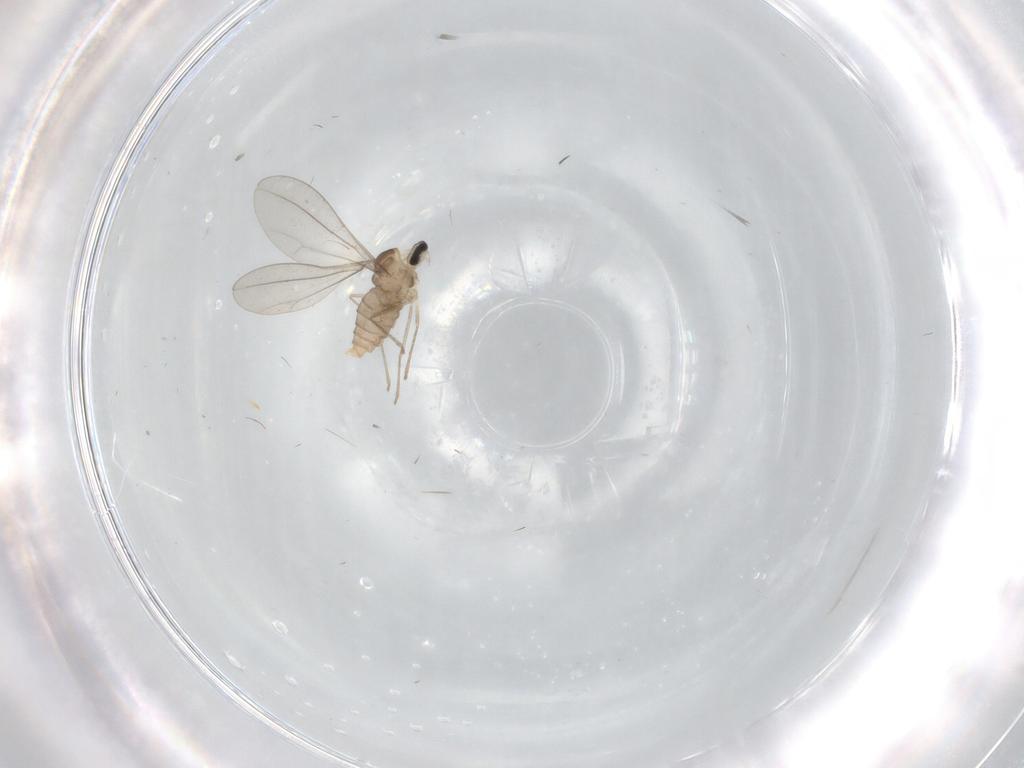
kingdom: Animalia
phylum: Arthropoda
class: Insecta
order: Diptera
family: Cecidomyiidae
